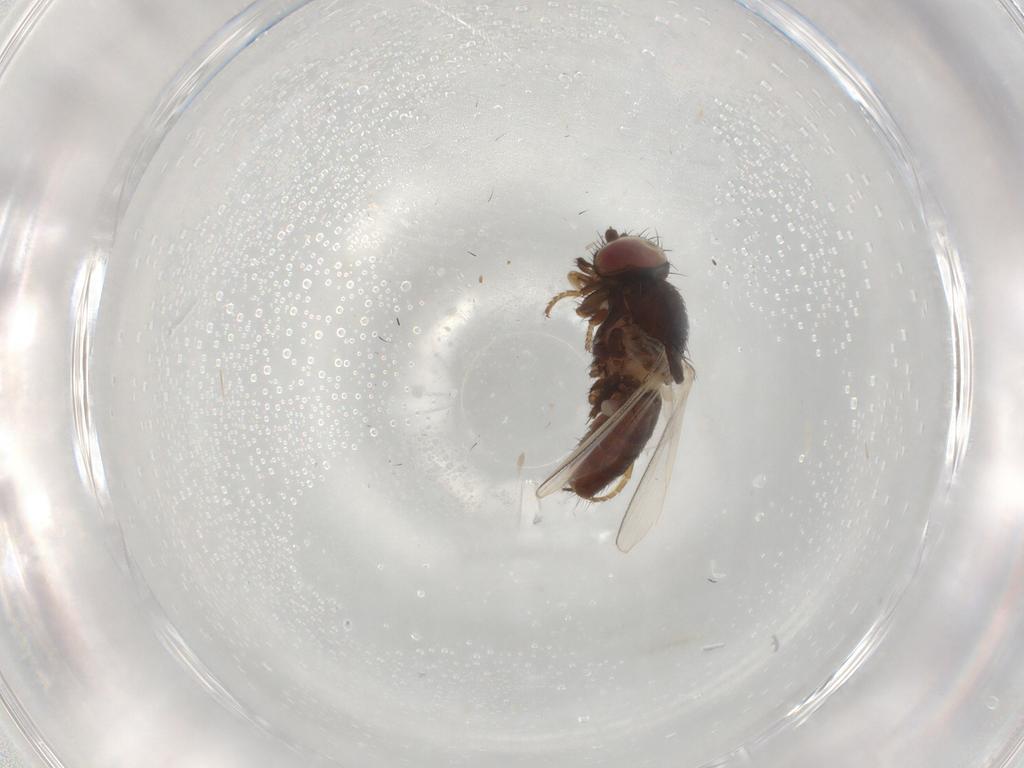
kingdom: Animalia
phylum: Arthropoda
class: Insecta
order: Diptera
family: Milichiidae
